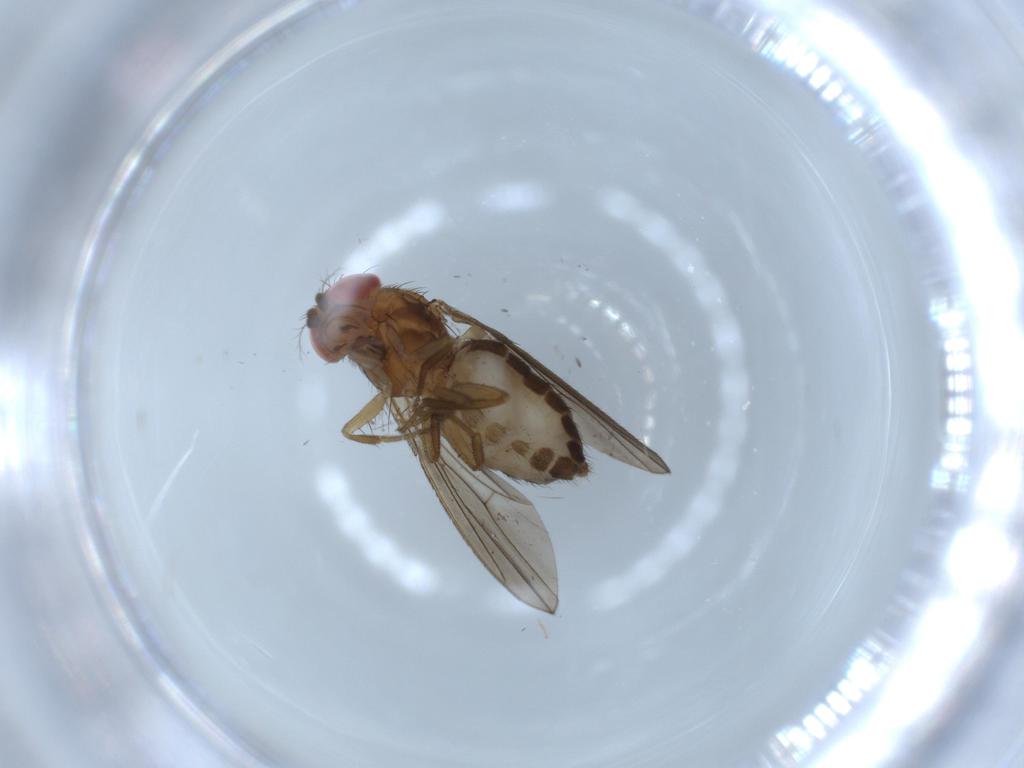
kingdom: Animalia
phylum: Arthropoda
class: Insecta
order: Diptera
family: Drosophilidae
